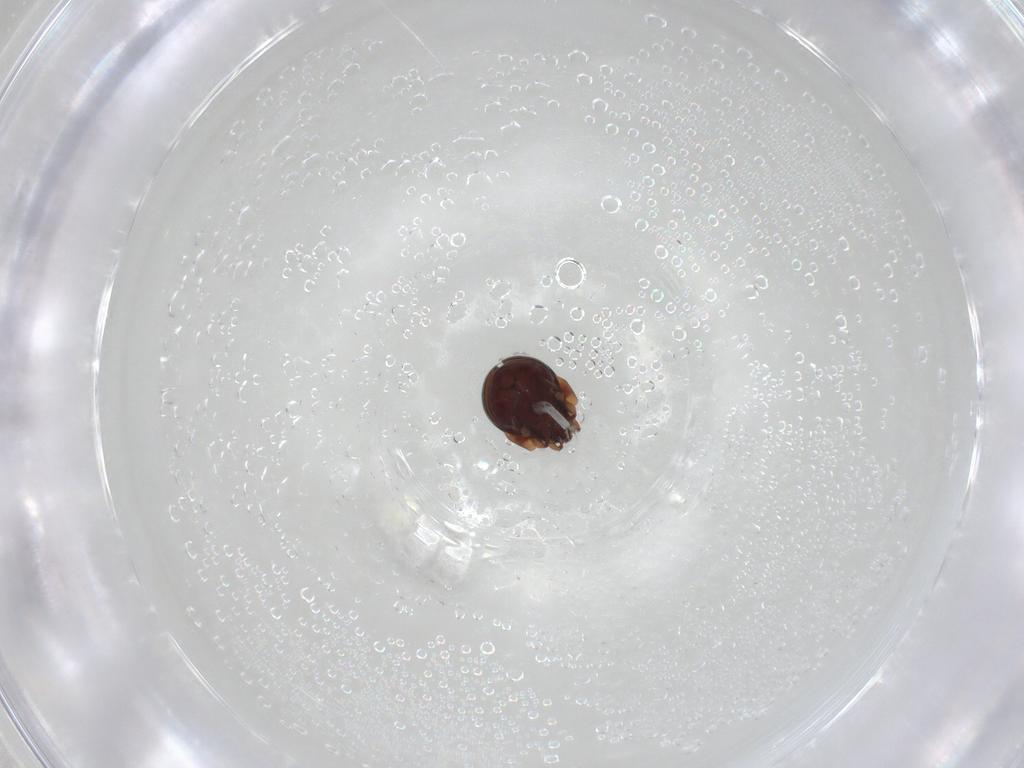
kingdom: Animalia
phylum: Arthropoda
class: Arachnida
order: Sarcoptiformes
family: Humerobatidae
